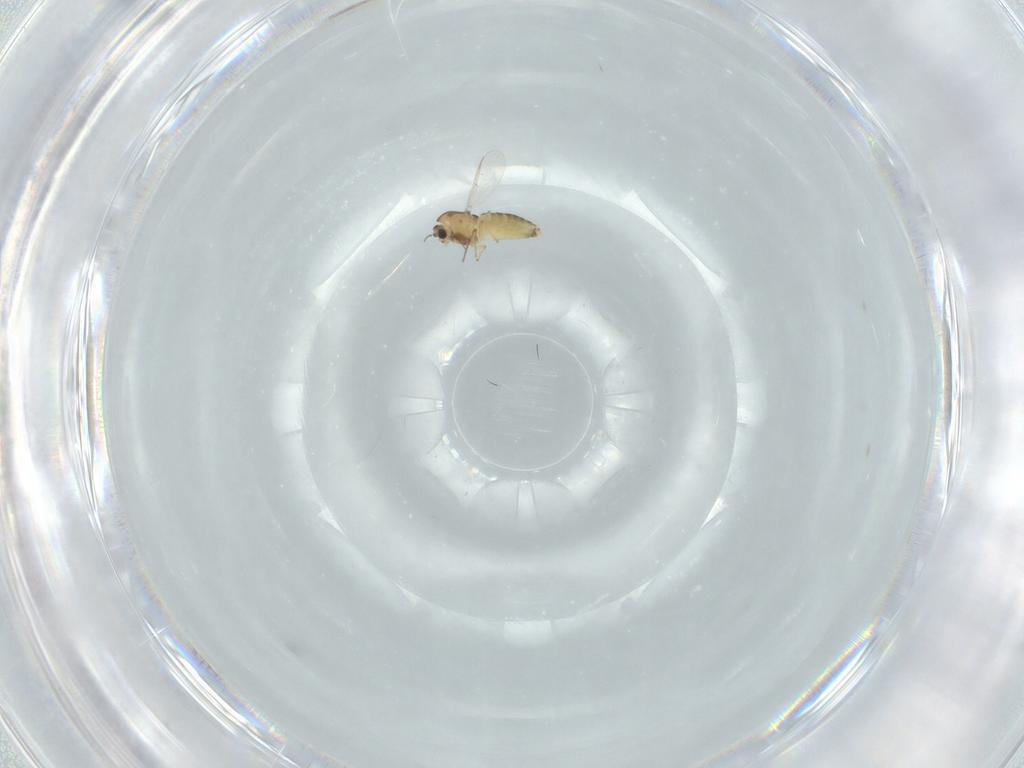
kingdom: Animalia
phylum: Arthropoda
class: Insecta
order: Diptera
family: Chironomidae
